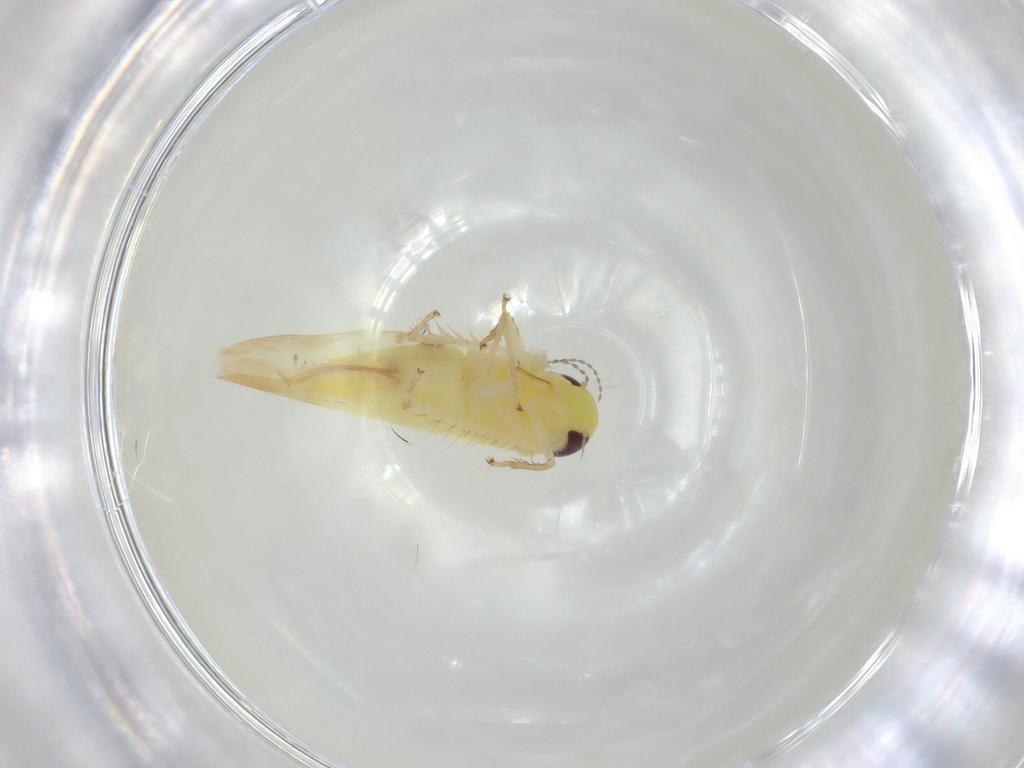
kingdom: Animalia
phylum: Arthropoda
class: Insecta
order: Hemiptera
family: Cicadellidae
